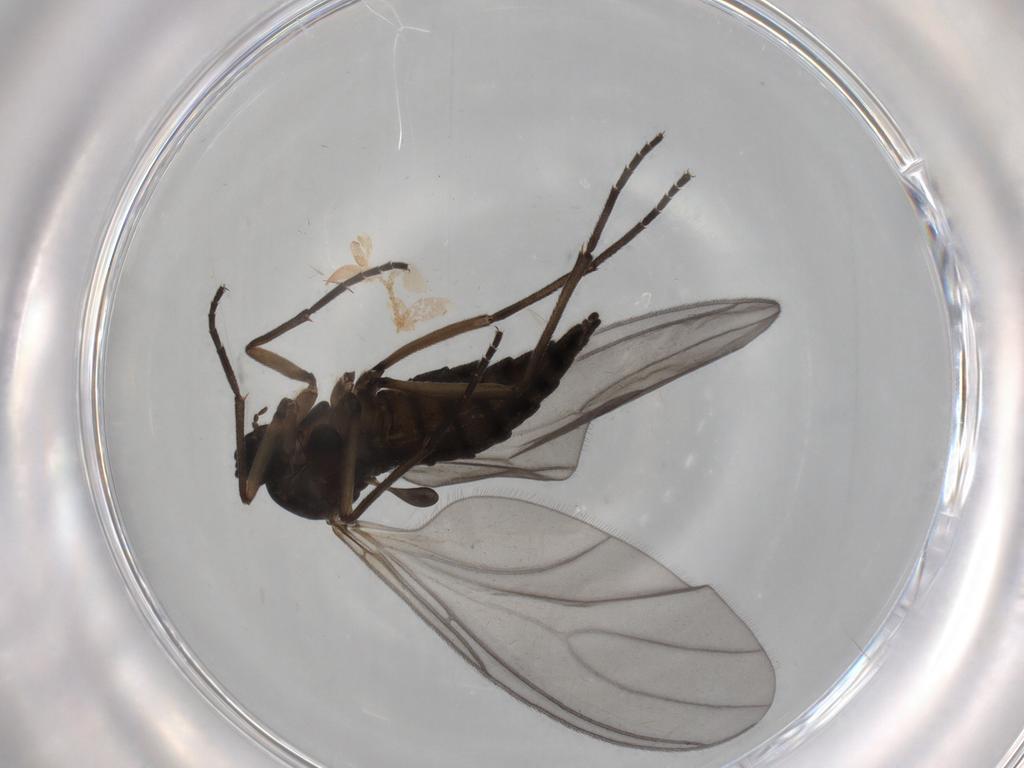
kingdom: Animalia
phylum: Arthropoda
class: Insecta
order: Diptera
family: Sciaridae
